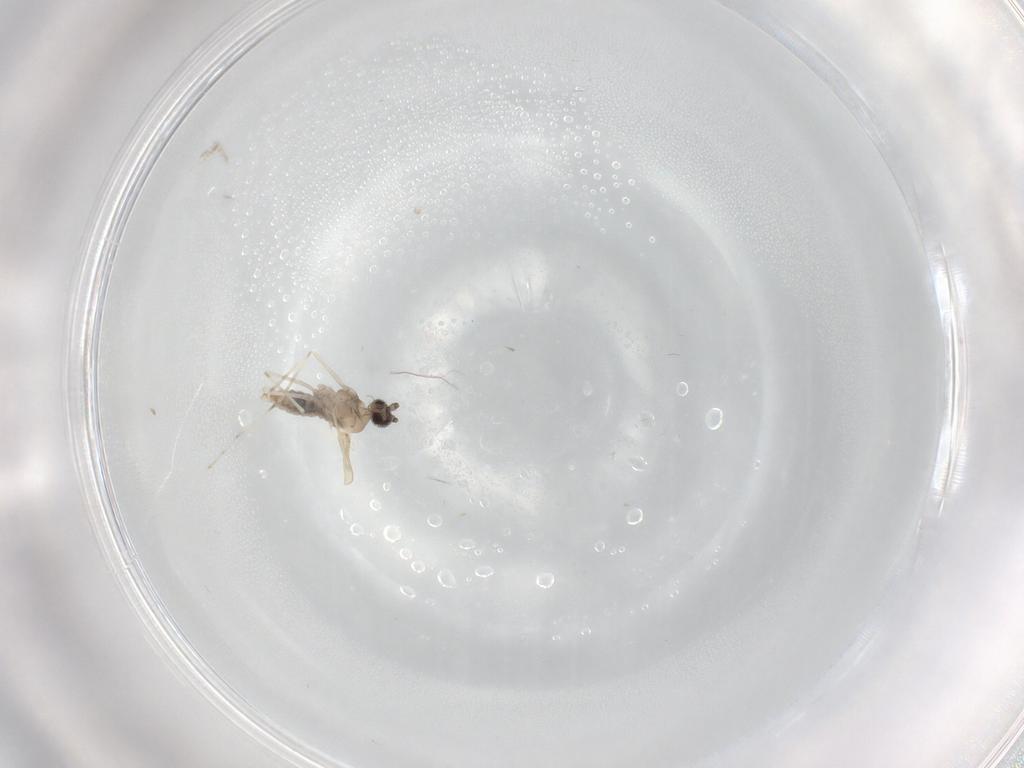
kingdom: Animalia
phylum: Arthropoda
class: Insecta
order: Diptera
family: Cecidomyiidae
